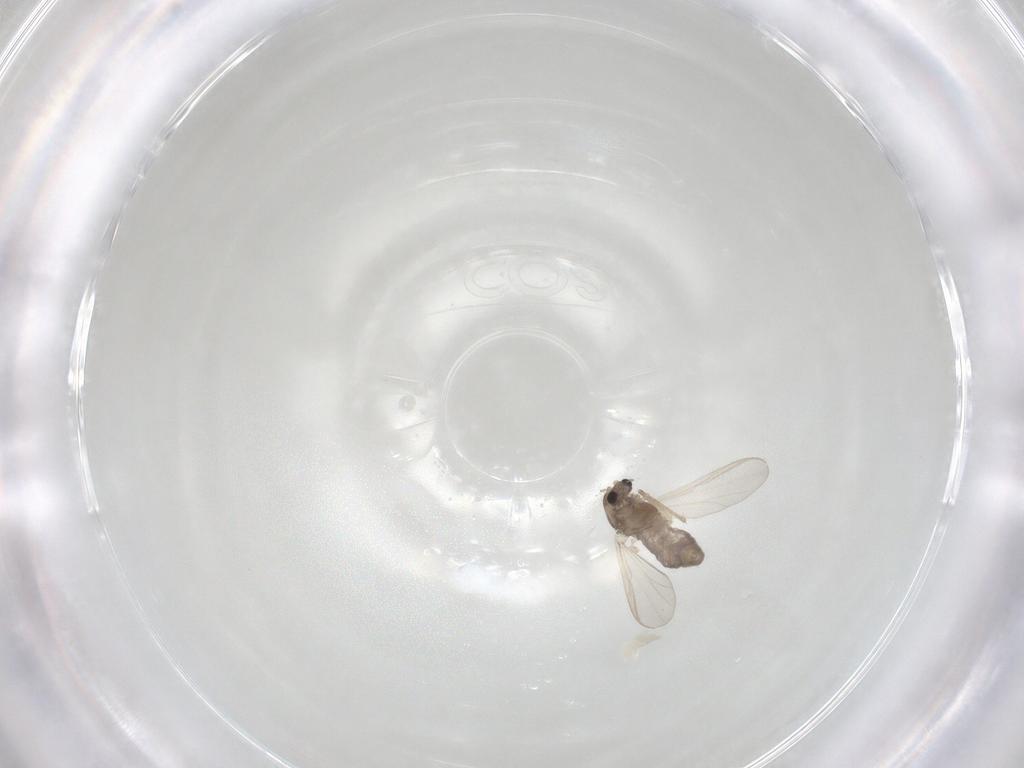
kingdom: Animalia
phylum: Arthropoda
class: Insecta
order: Diptera
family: Chironomidae
